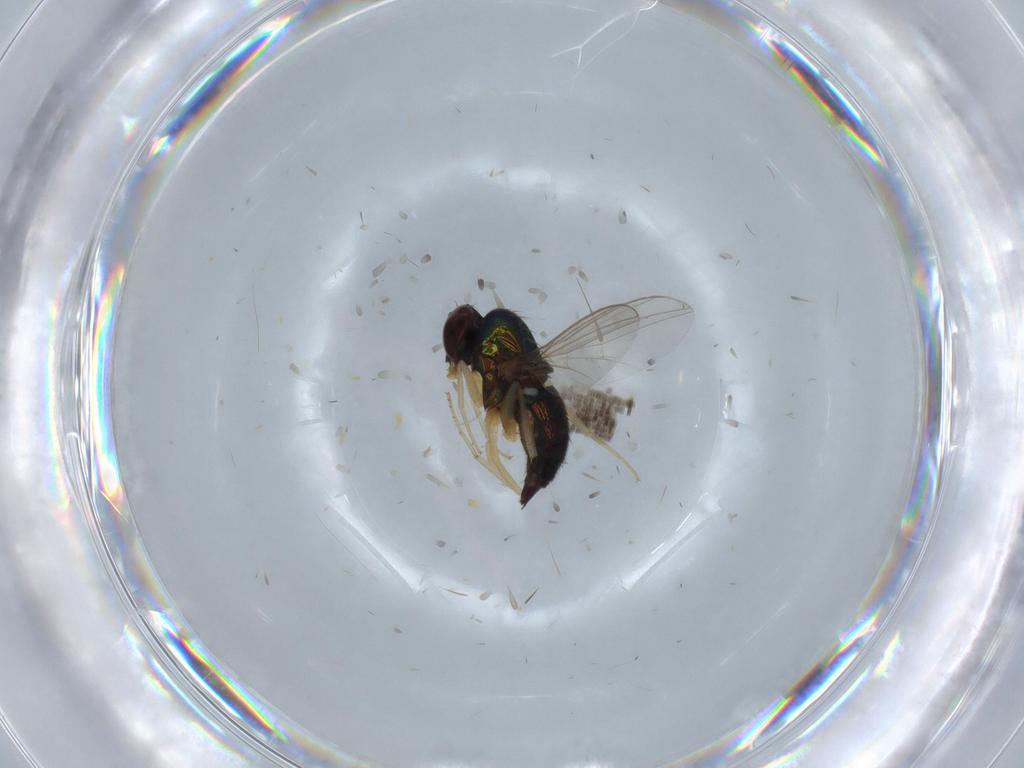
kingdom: Animalia
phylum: Arthropoda
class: Insecta
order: Diptera
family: Dolichopodidae
